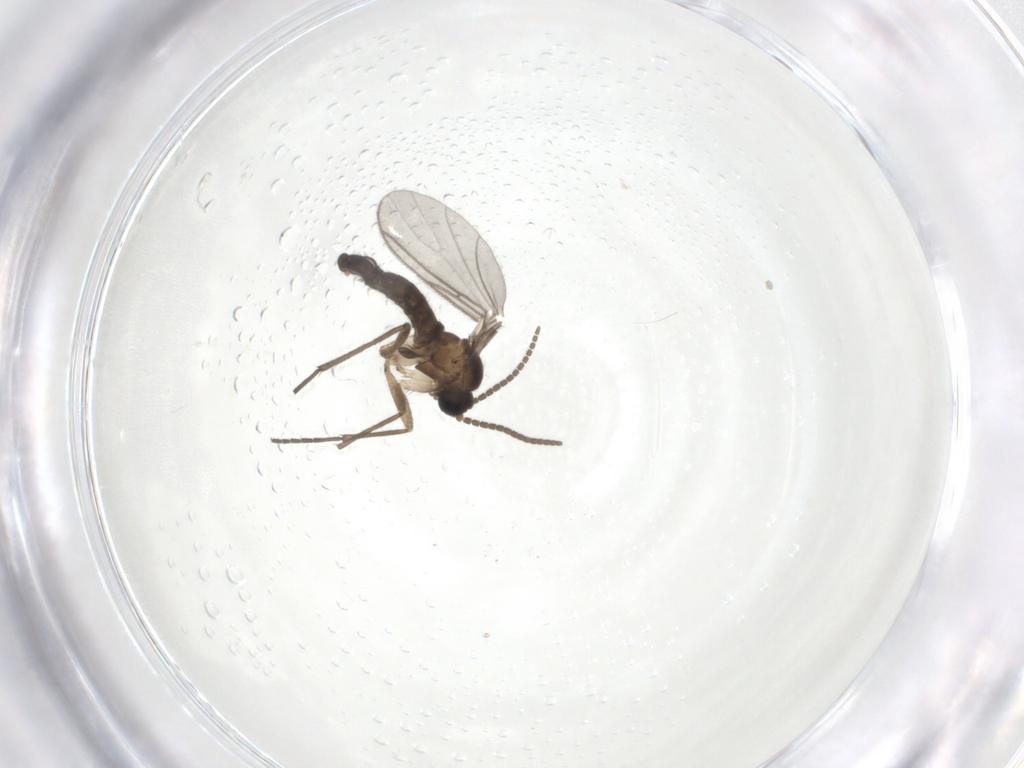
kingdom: Animalia
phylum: Arthropoda
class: Insecta
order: Diptera
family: Sciaridae
